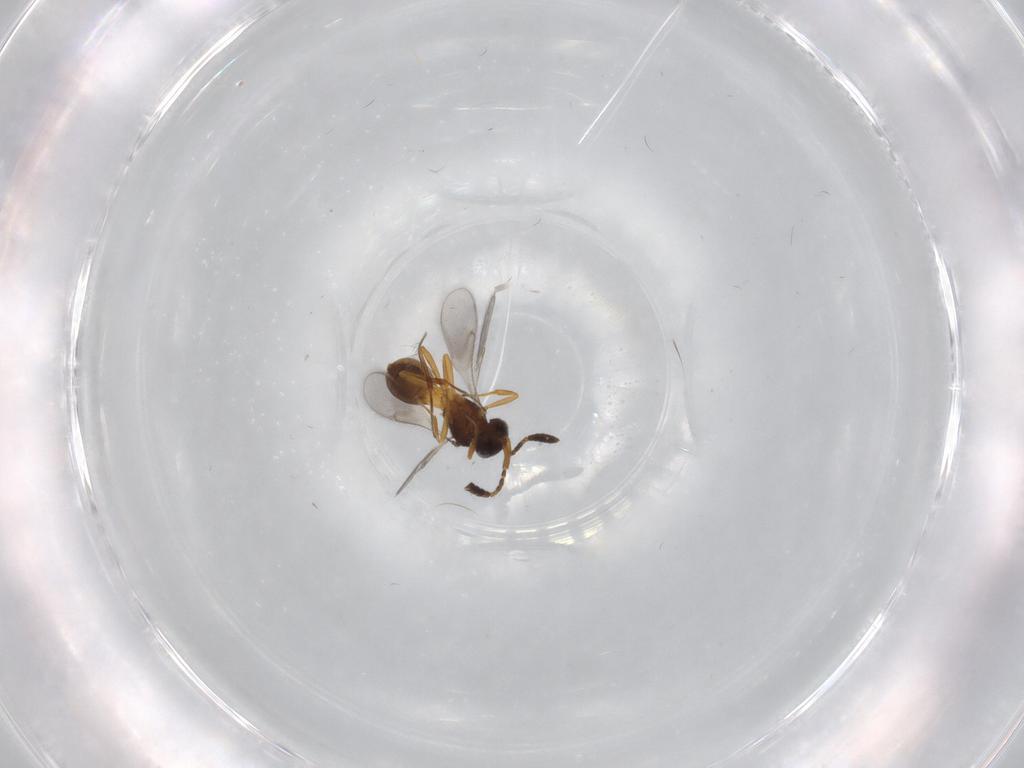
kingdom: Animalia
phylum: Arthropoda
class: Insecta
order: Hymenoptera
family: Scelionidae
